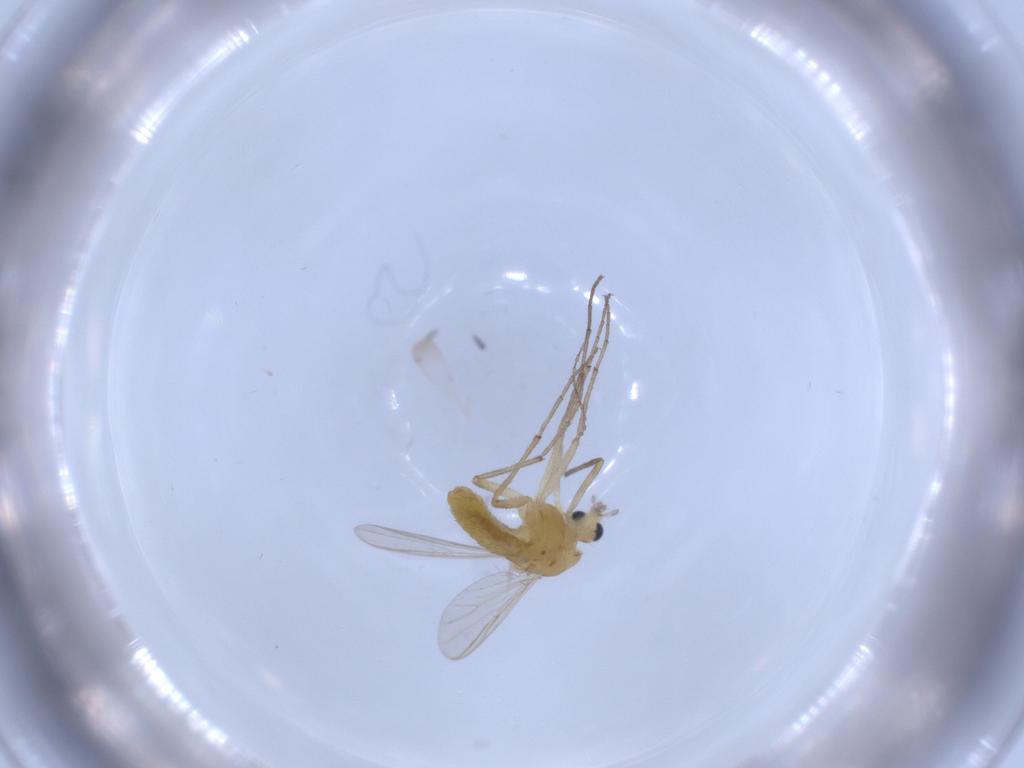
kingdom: Animalia
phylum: Arthropoda
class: Insecta
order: Diptera
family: Chironomidae
